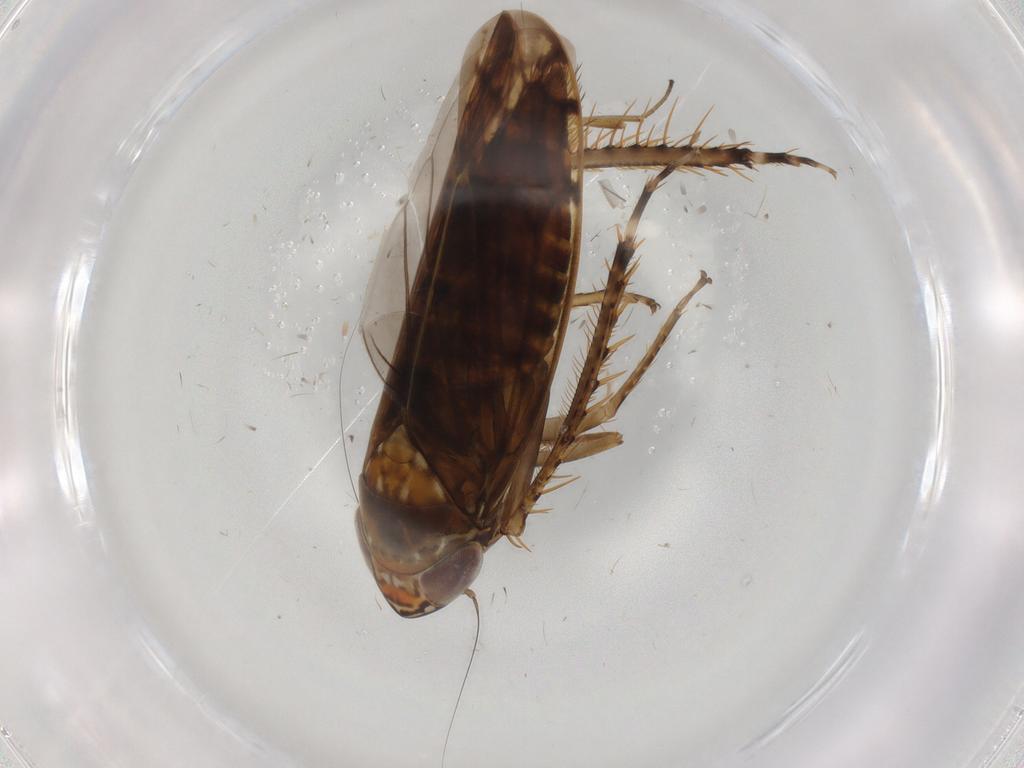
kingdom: Animalia
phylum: Arthropoda
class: Insecta
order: Hemiptera
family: Cicadellidae
